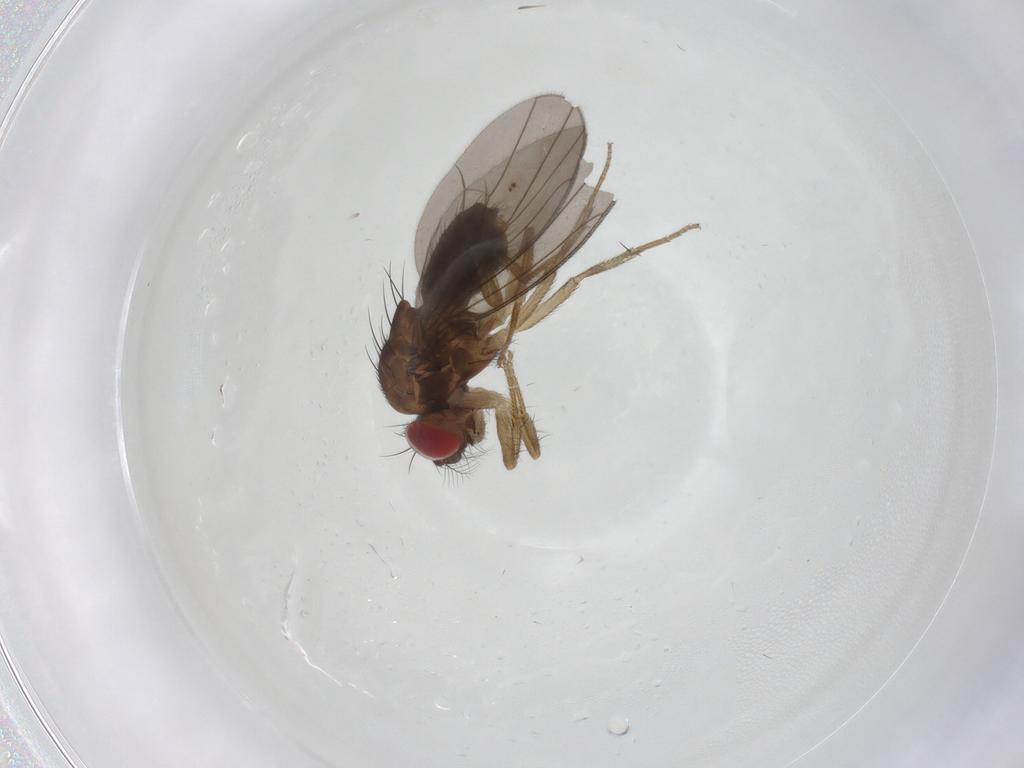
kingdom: Animalia
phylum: Arthropoda
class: Insecta
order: Diptera
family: Drosophilidae
